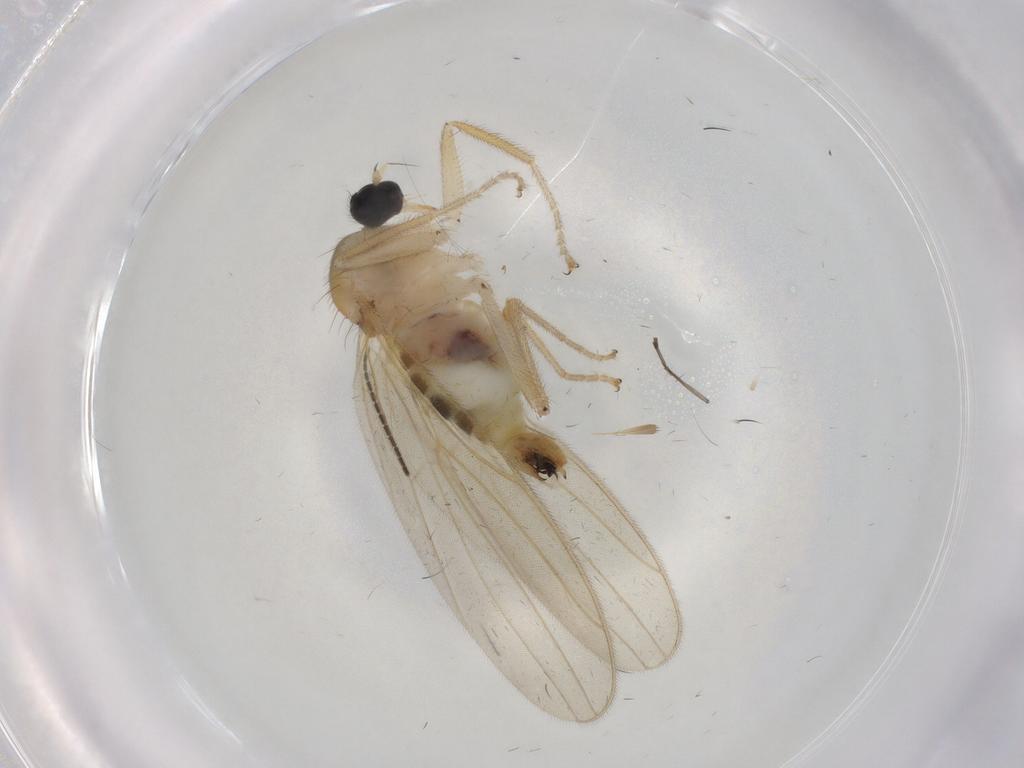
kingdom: Animalia
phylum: Arthropoda
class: Insecta
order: Diptera
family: Hybotidae
